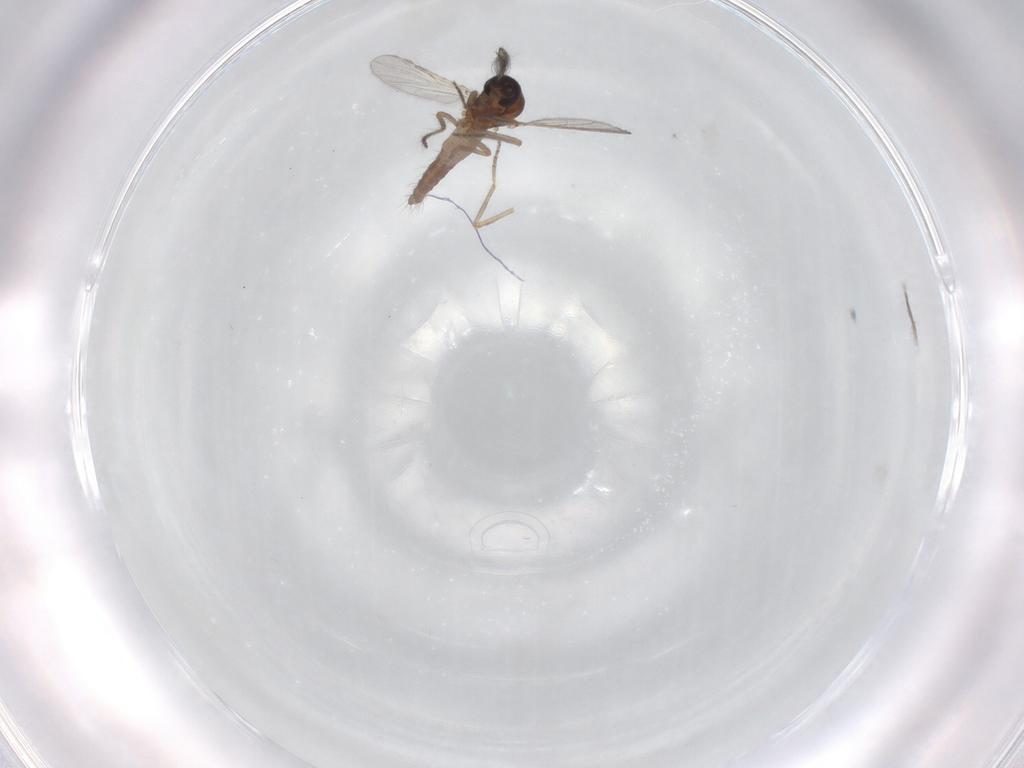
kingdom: Animalia
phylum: Arthropoda
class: Insecta
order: Diptera
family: Ceratopogonidae
